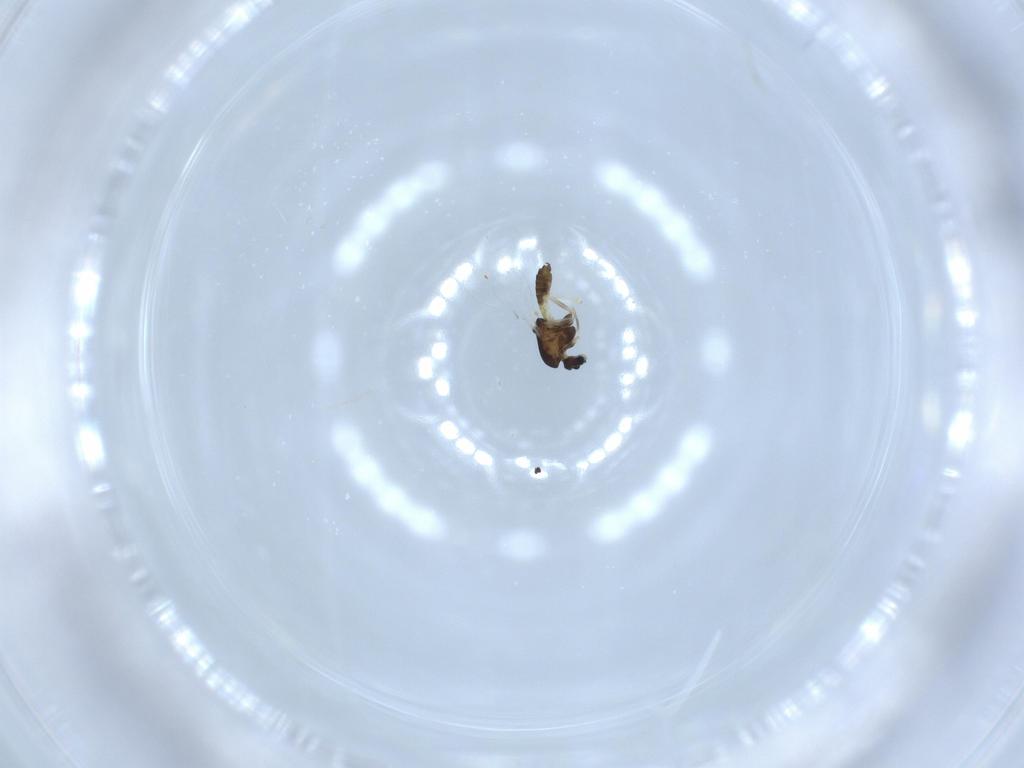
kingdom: Animalia
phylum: Arthropoda
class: Insecta
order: Diptera
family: Chironomidae
